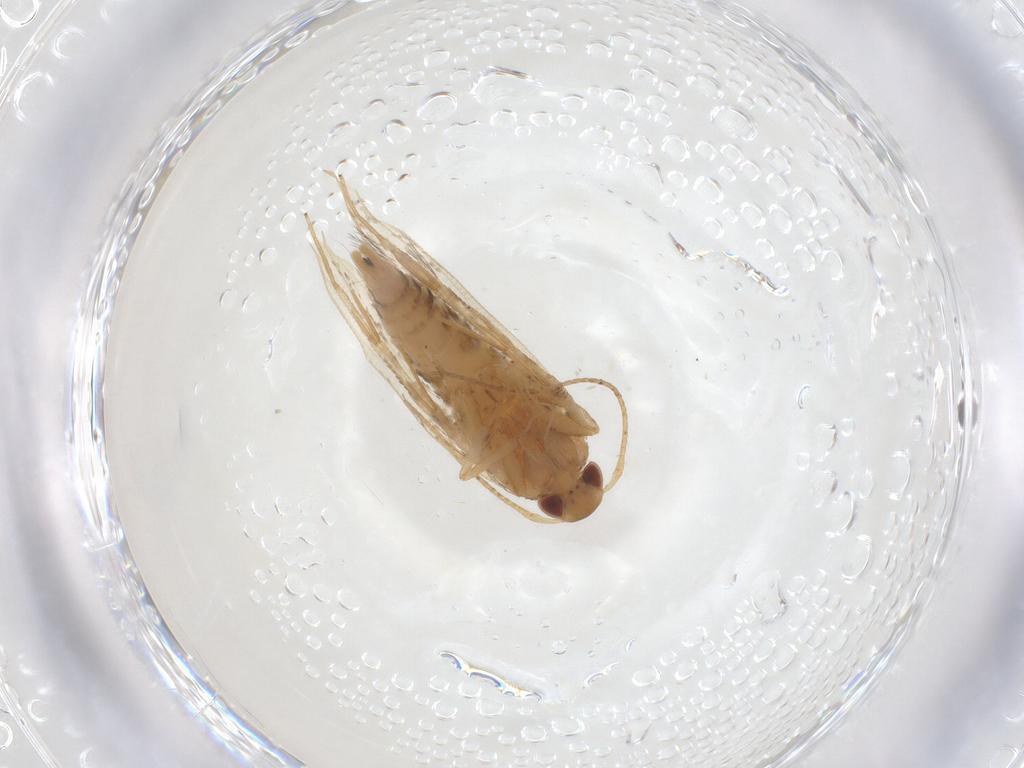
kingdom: Animalia
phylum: Arthropoda
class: Insecta
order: Lepidoptera
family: Cosmopterigidae
